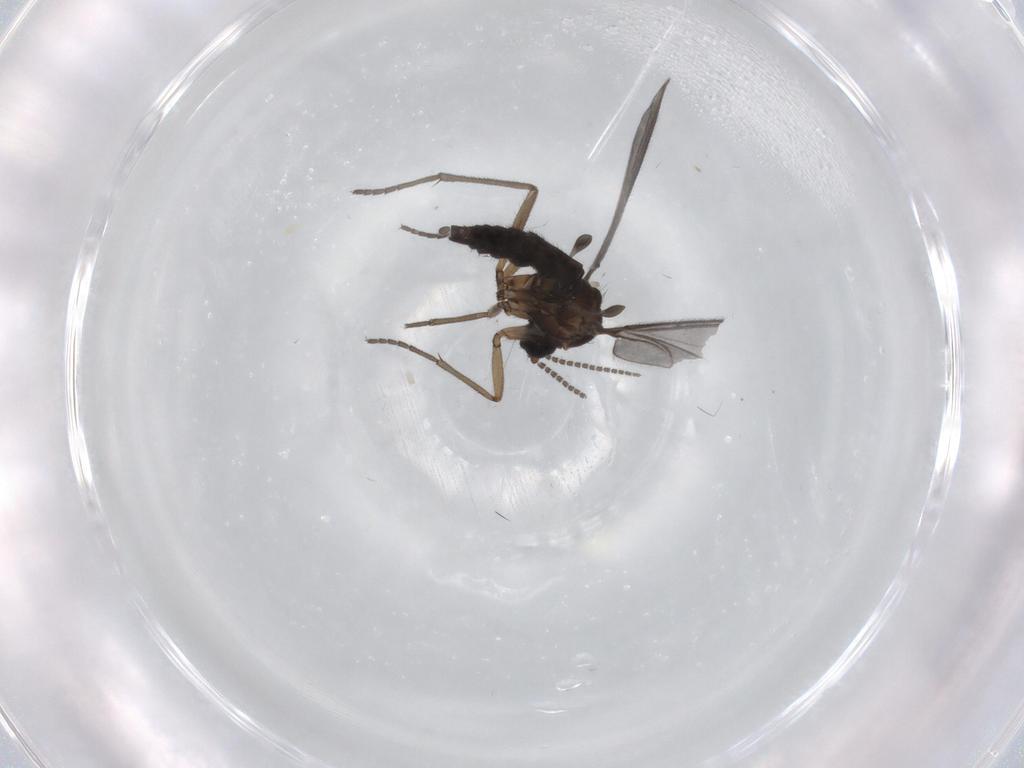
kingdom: Animalia
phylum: Arthropoda
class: Insecta
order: Diptera
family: Sciaridae
